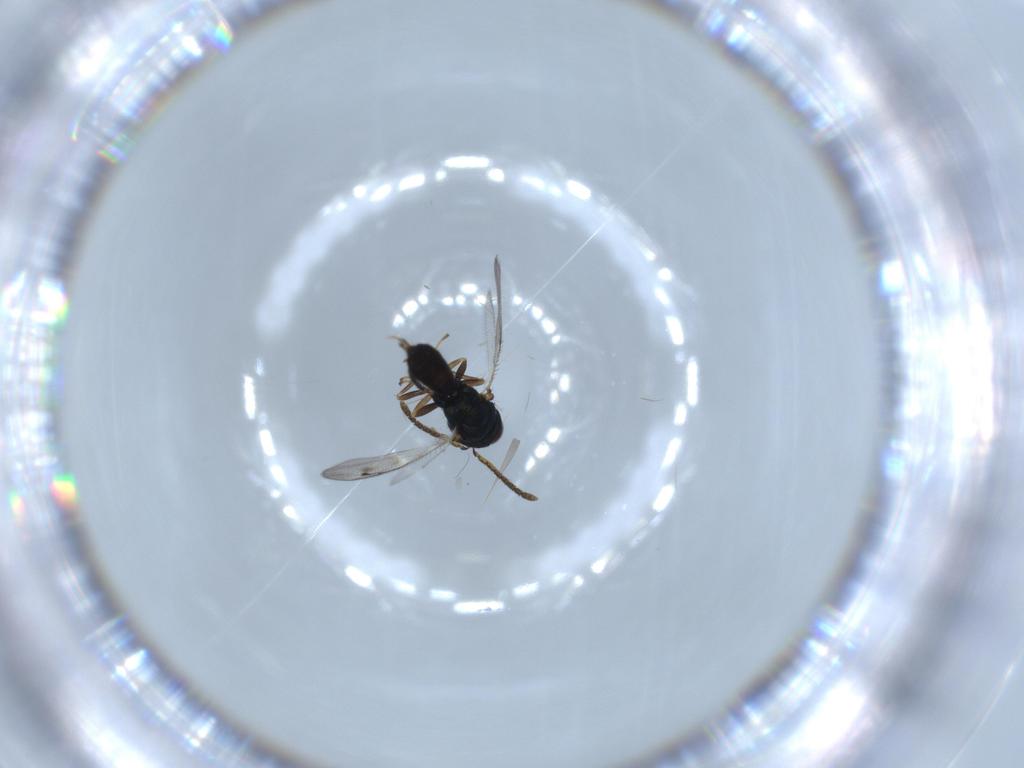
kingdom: Animalia
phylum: Arthropoda
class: Insecta
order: Hymenoptera
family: Pteromalidae
